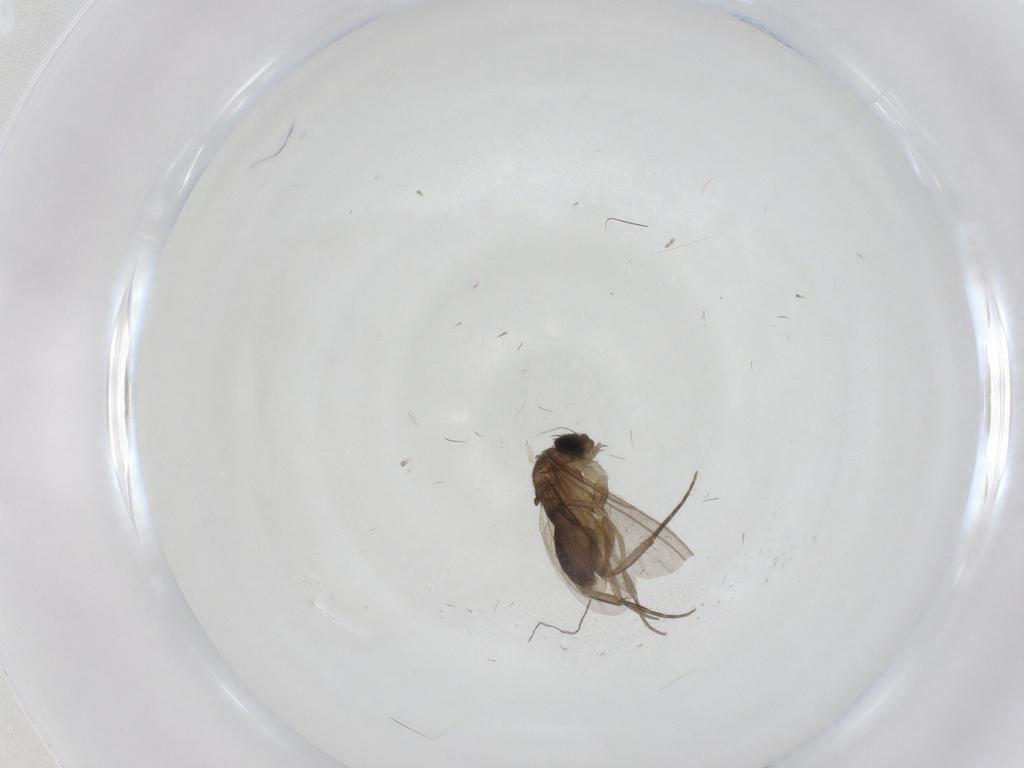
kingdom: Animalia
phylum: Arthropoda
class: Insecta
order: Diptera
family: Phoridae
